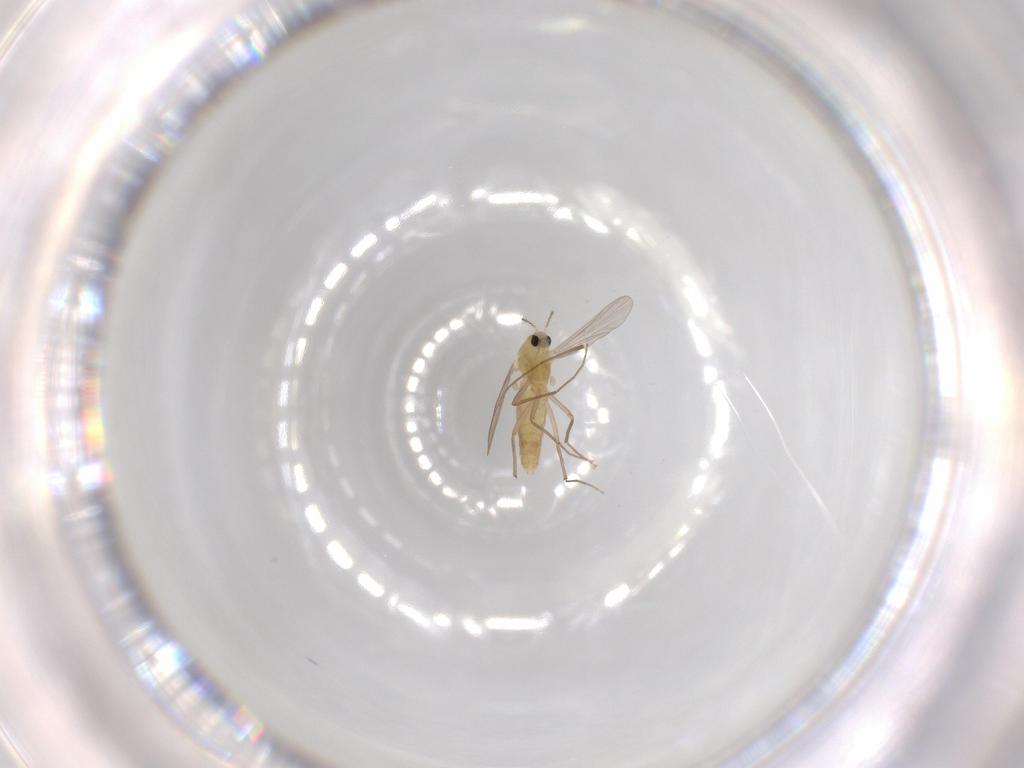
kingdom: Animalia
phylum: Arthropoda
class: Insecta
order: Diptera
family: Chironomidae
